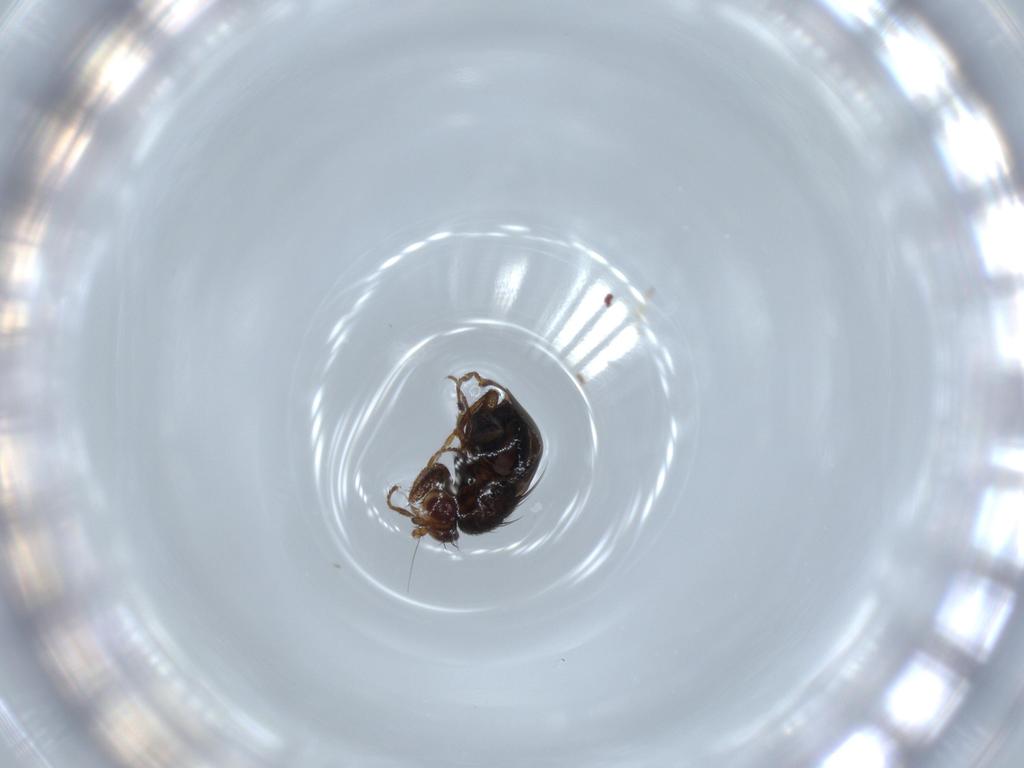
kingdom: Animalia
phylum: Arthropoda
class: Insecta
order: Diptera
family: Sphaeroceridae
